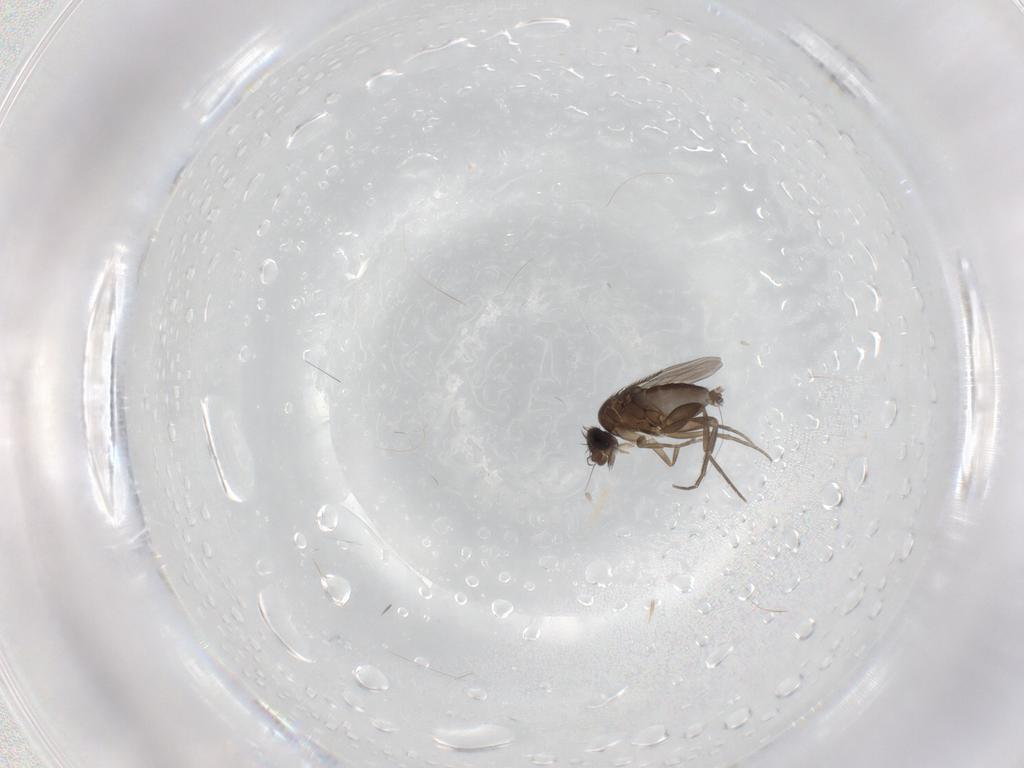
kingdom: Animalia
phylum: Arthropoda
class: Insecta
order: Diptera
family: Phoridae
